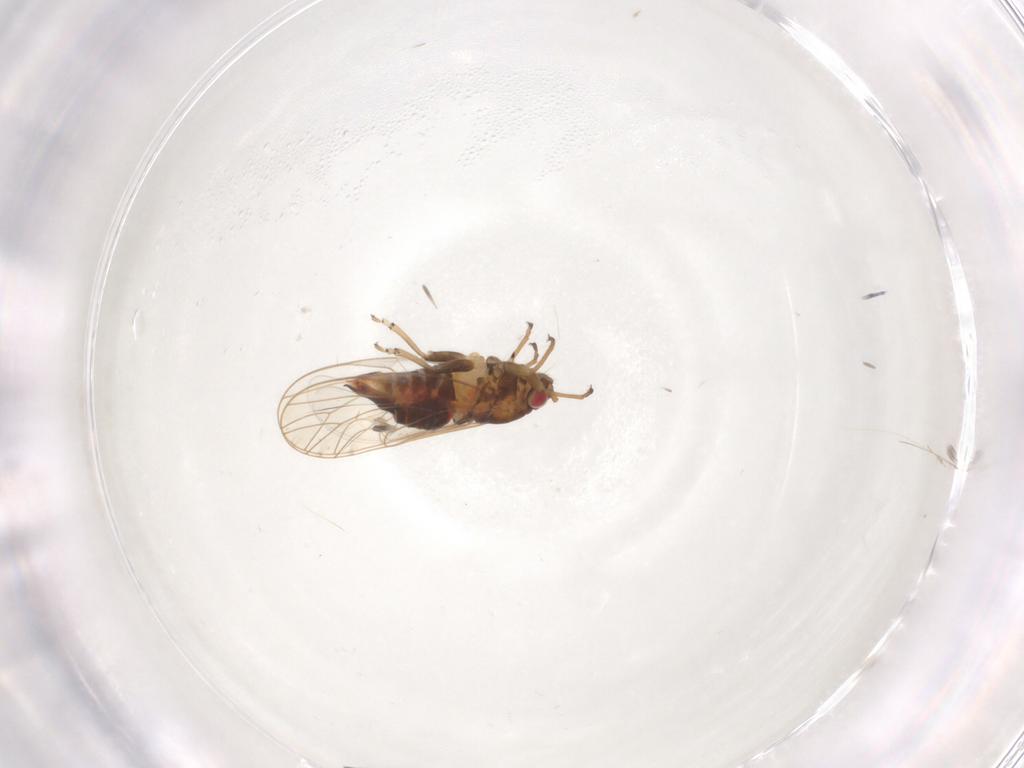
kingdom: Animalia
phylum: Arthropoda
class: Insecta
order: Hemiptera
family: Psyllidae
